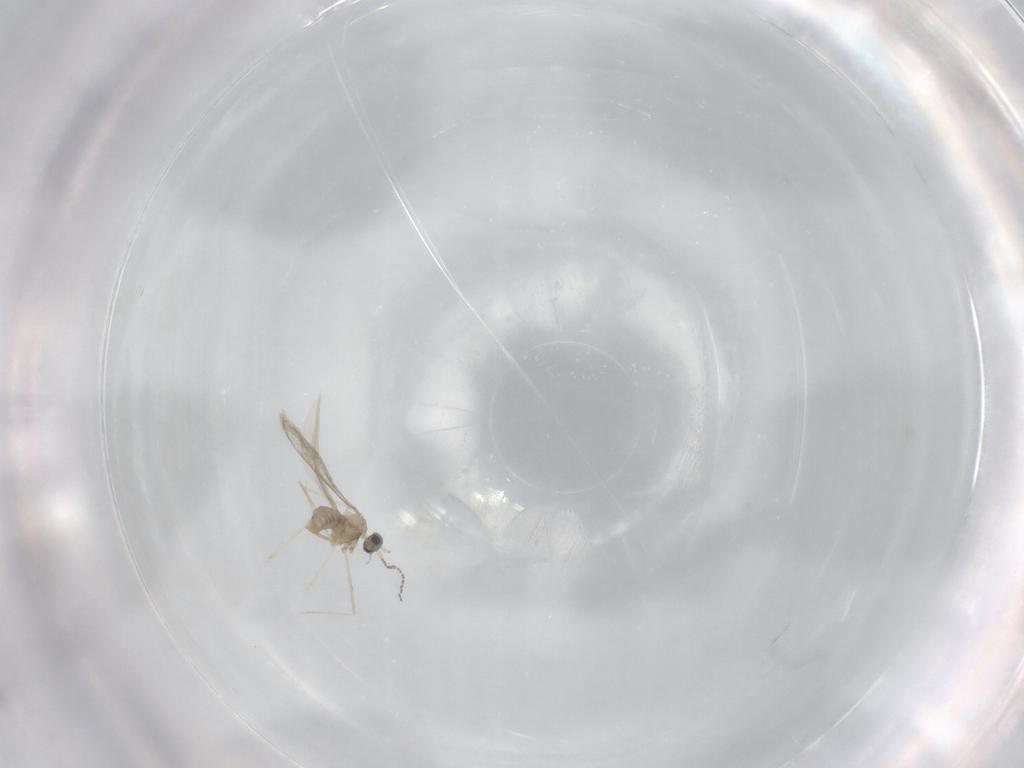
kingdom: Animalia
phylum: Arthropoda
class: Insecta
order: Diptera
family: Cecidomyiidae
